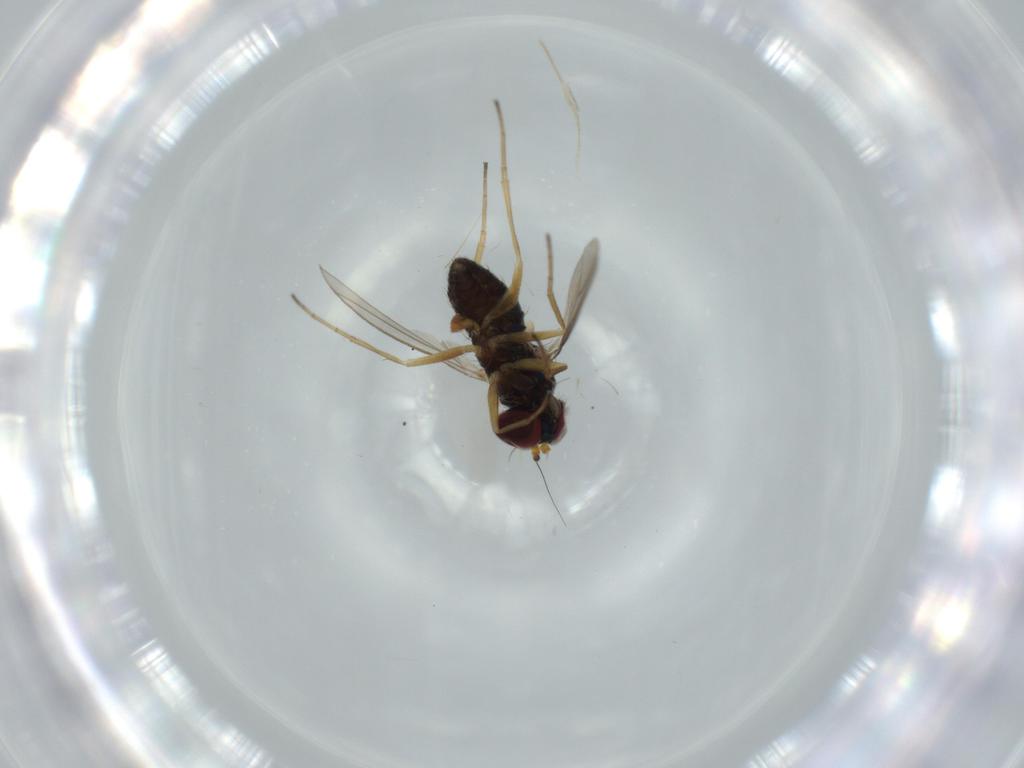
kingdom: Animalia
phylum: Arthropoda
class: Insecta
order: Diptera
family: Dolichopodidae
